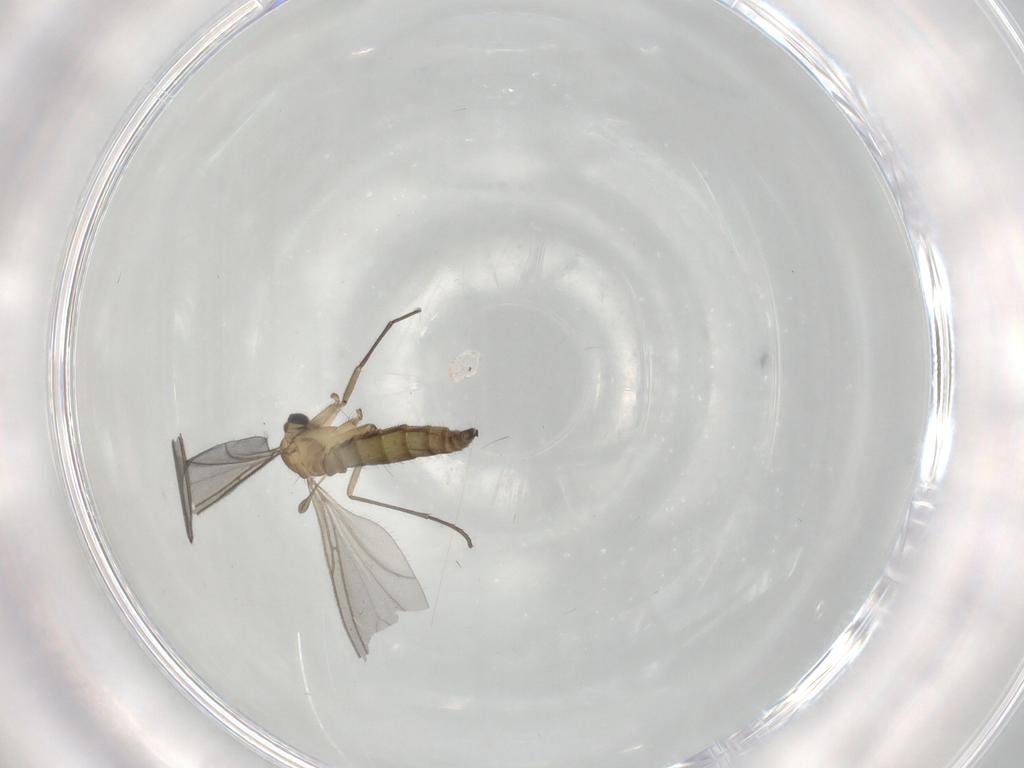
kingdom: Animalia
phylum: Arthropoda
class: Insecta
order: Diptera
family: Sciaridae
